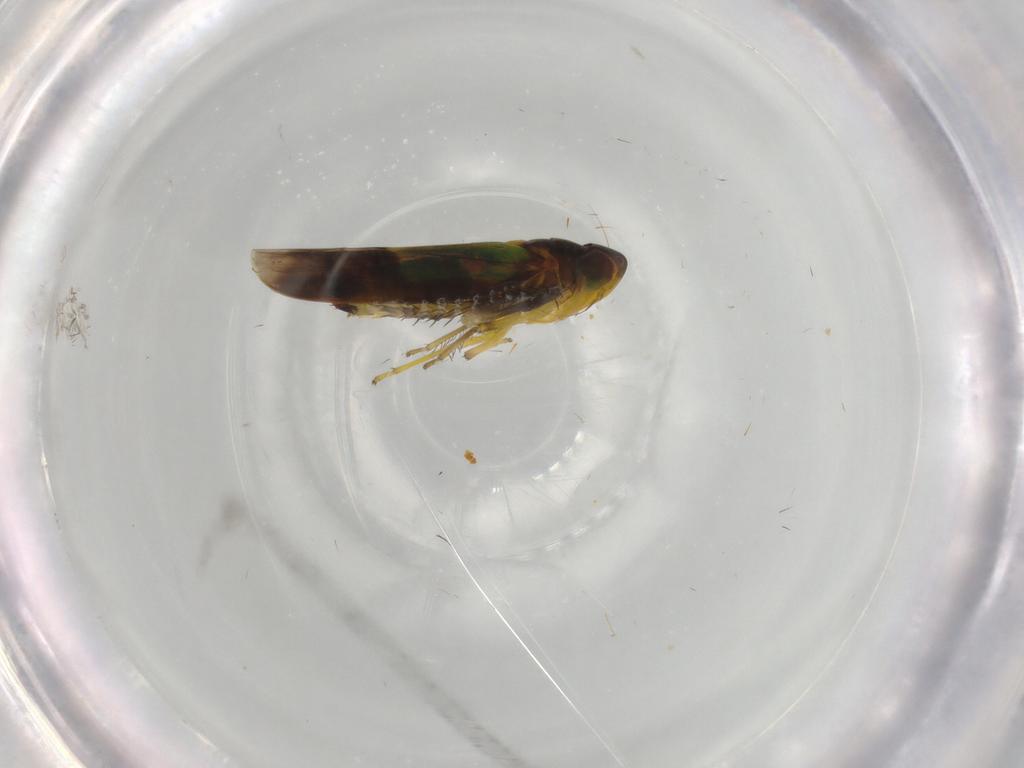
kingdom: Animalia
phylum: Arthropoda
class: Insecta
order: Hemiptera
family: Cicadellidae
